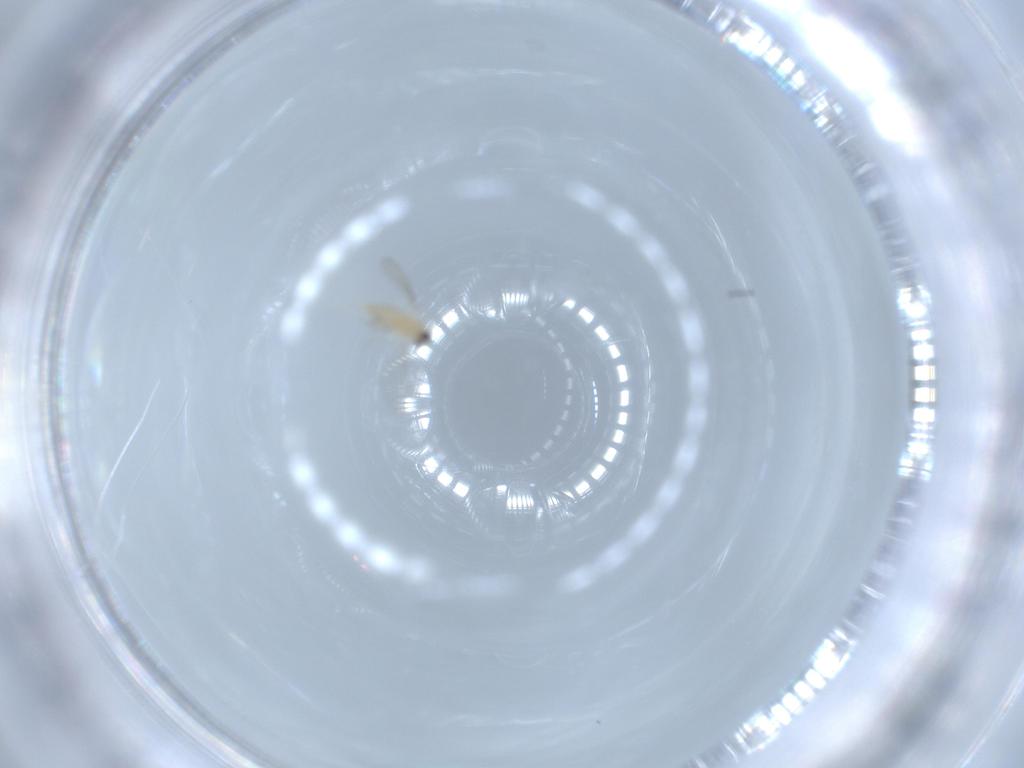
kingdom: Animalia
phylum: Arthropoda
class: Insecta
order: Diptera
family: Cecidomyiidae
